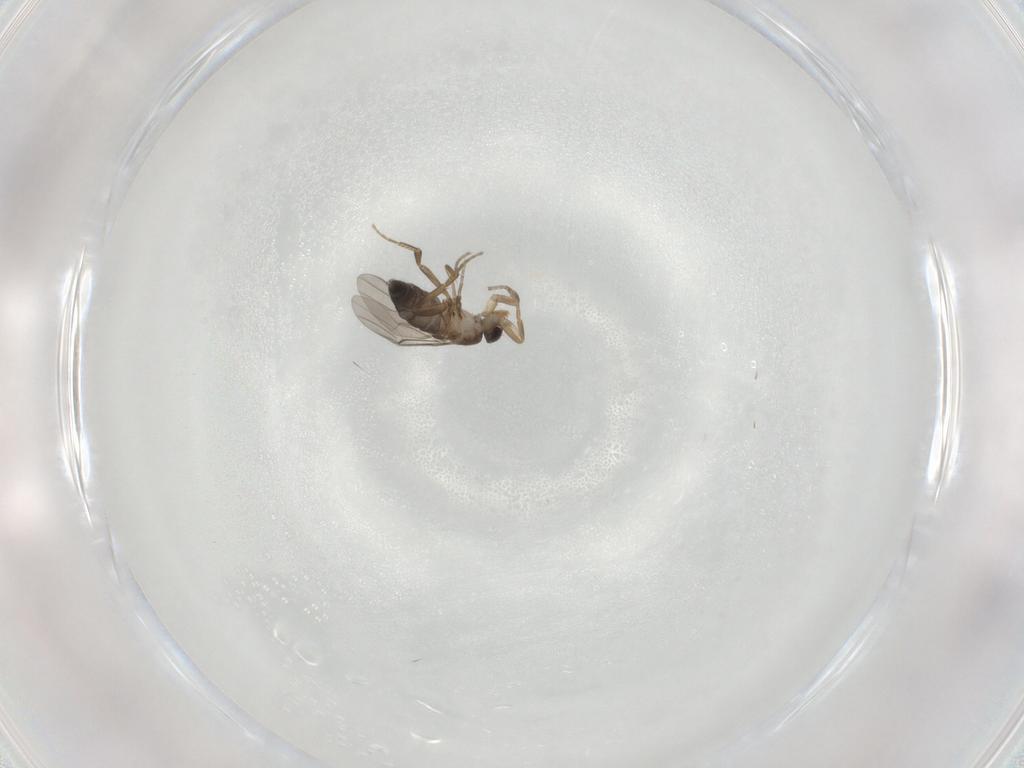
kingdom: Animalia
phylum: Arthropoda
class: Insecta
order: Diptera
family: Phoridae
